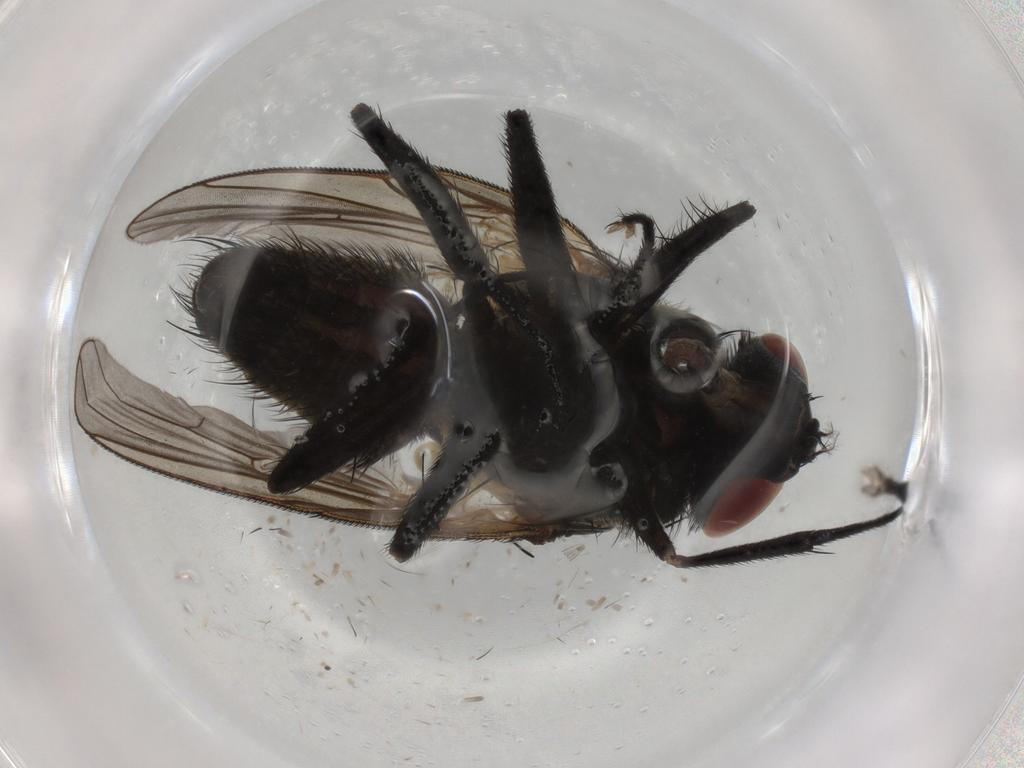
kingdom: Animalia
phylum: Arthropoda
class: Insecta
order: Diptera
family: Muscidae
